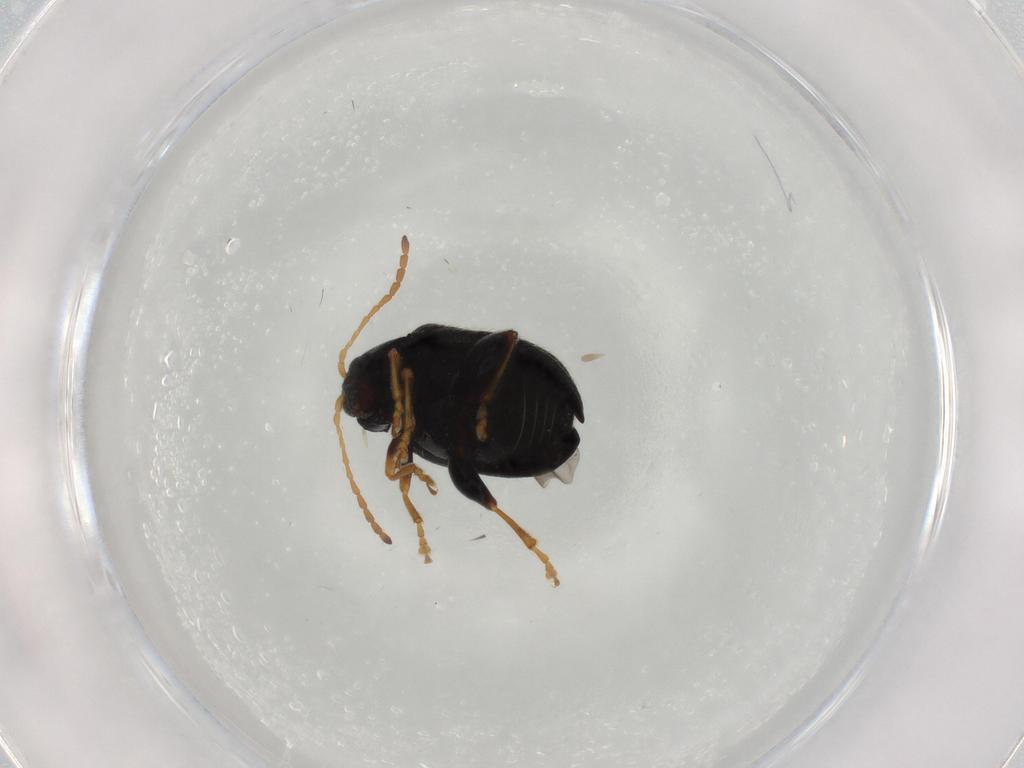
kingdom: Animalia
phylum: Arthropoda
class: Insecta
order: Coleoptera
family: Chrysomelidae
